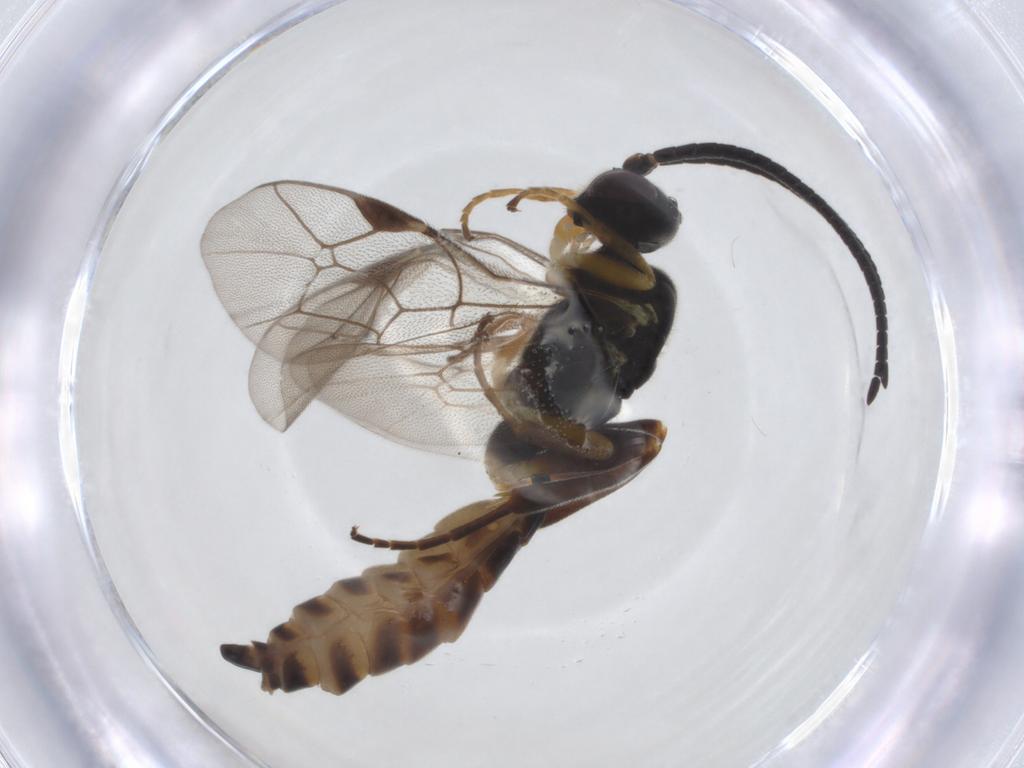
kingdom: Animalia
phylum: Arthropoda
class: Insecta
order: Hymenoptera
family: Ichneumonidae
